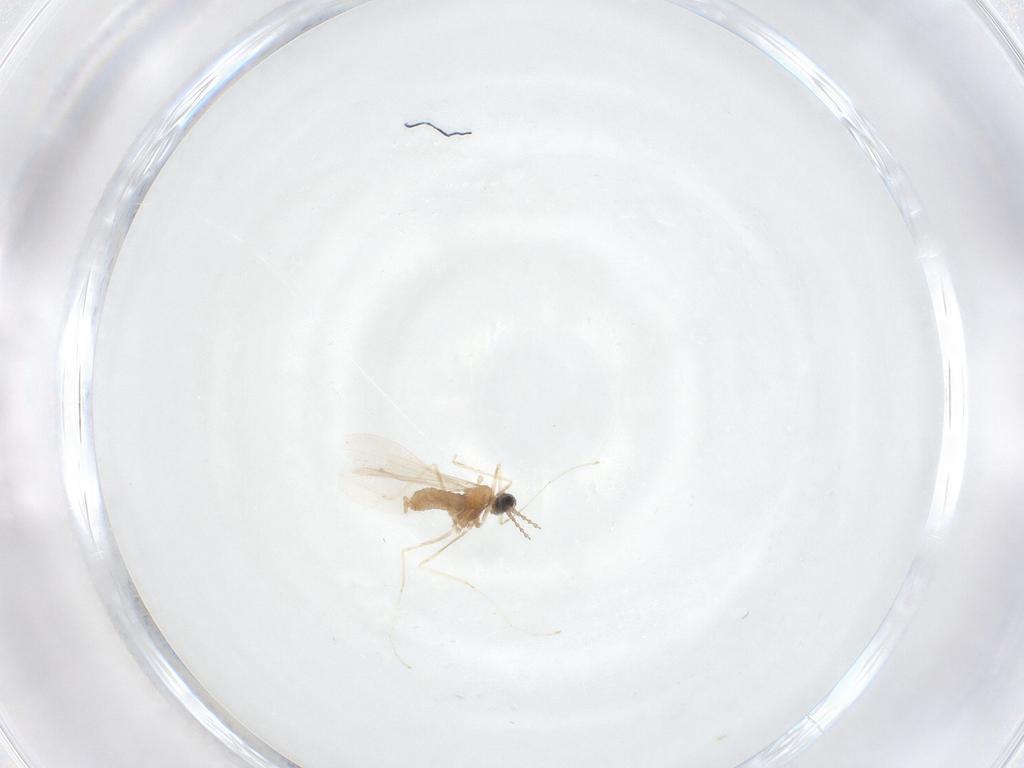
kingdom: Animalia
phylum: Arthropoda
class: Insecta
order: Diptera
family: Cecidomyiidae
